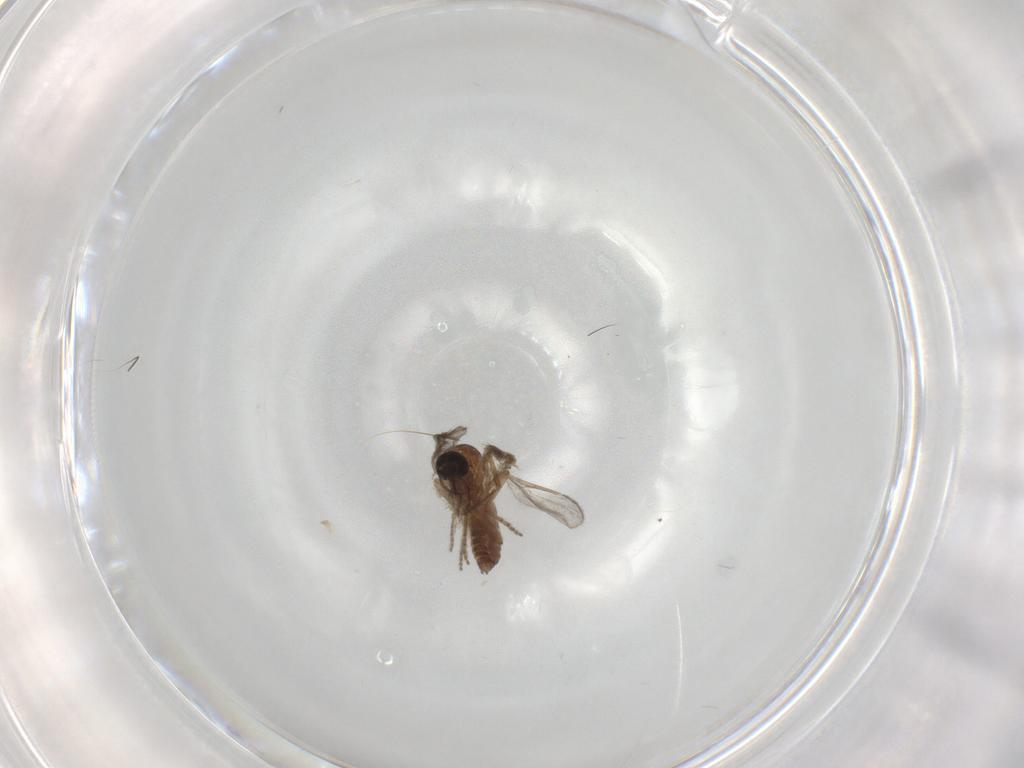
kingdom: Animalia
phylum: Arthropoda
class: Insecta
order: Diptera
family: Ceratopogonidae
